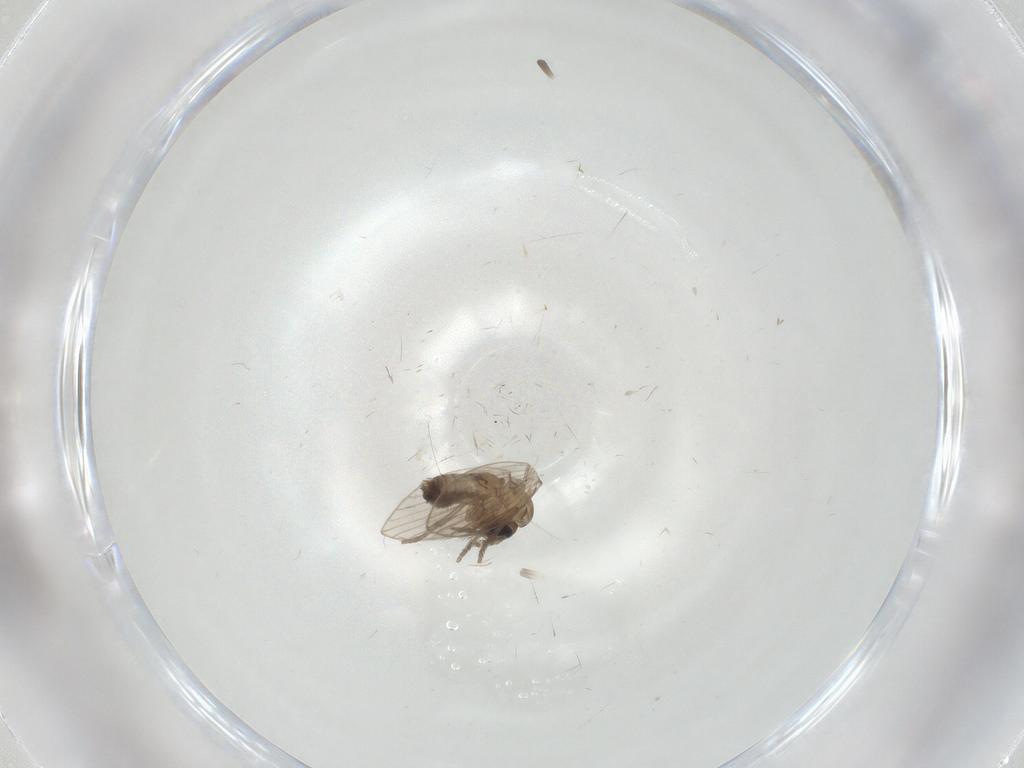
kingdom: Animalia
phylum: Arthropoda
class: Insecta
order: Diptera
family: Psychodidae
